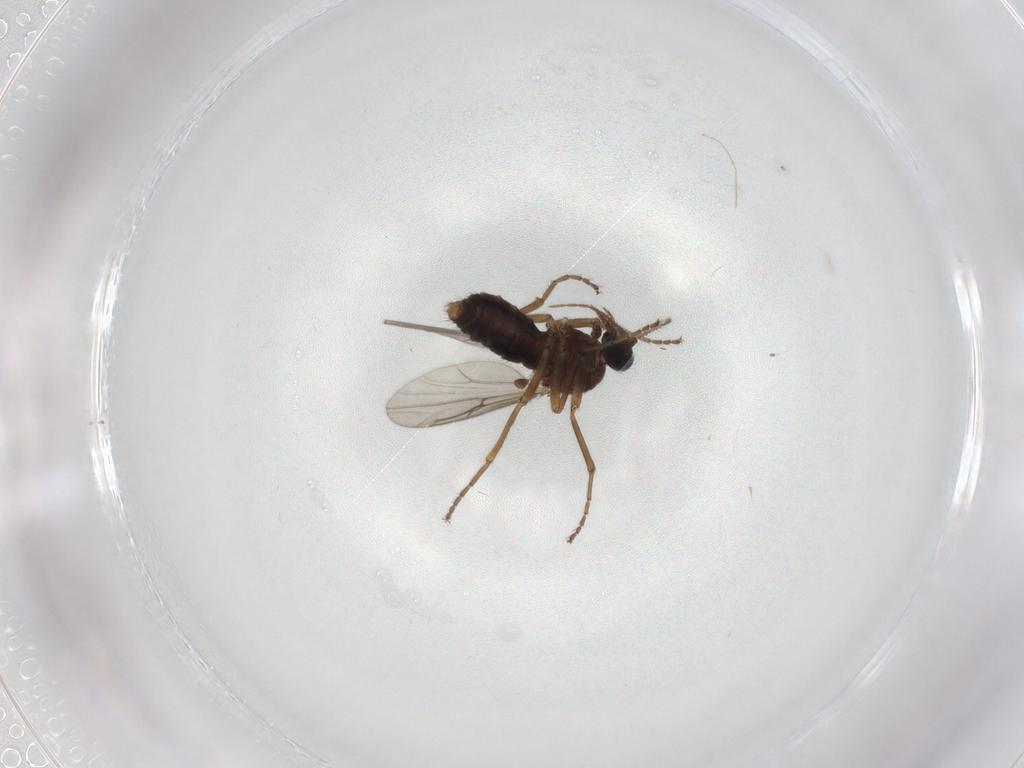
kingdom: Animalia
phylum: Arthropoda
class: Insecta
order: Diptera
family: Ceratopogonidae
